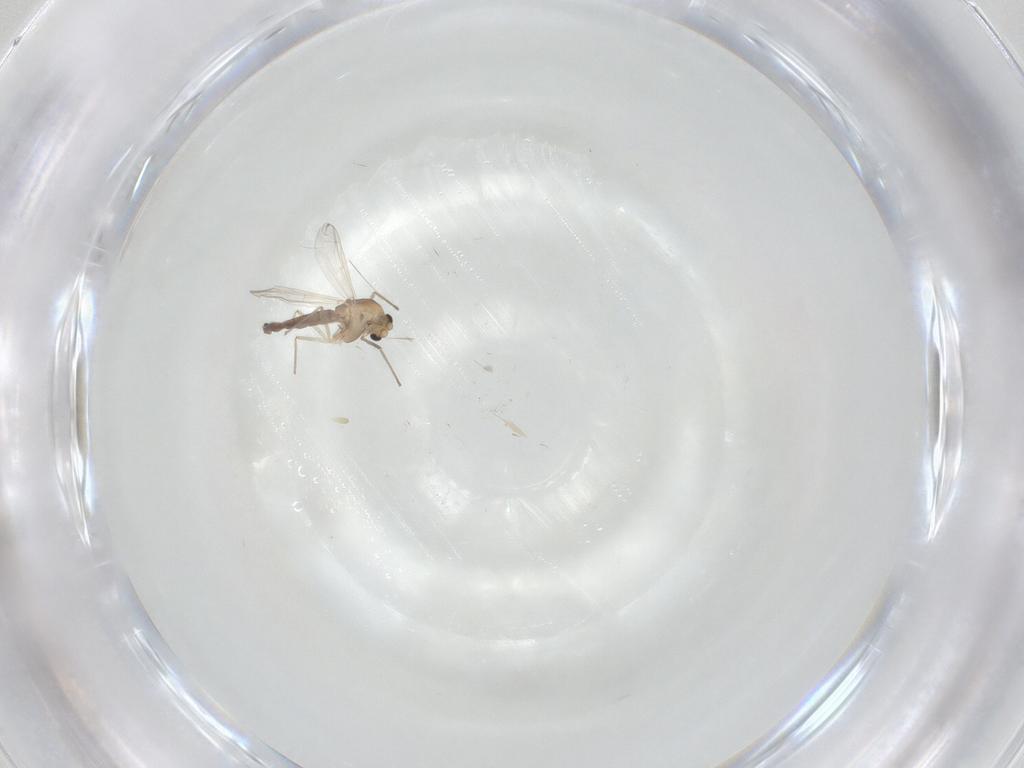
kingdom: Animalia
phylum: Arthropoda
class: Insecta
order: Diptera
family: Chironomidae
